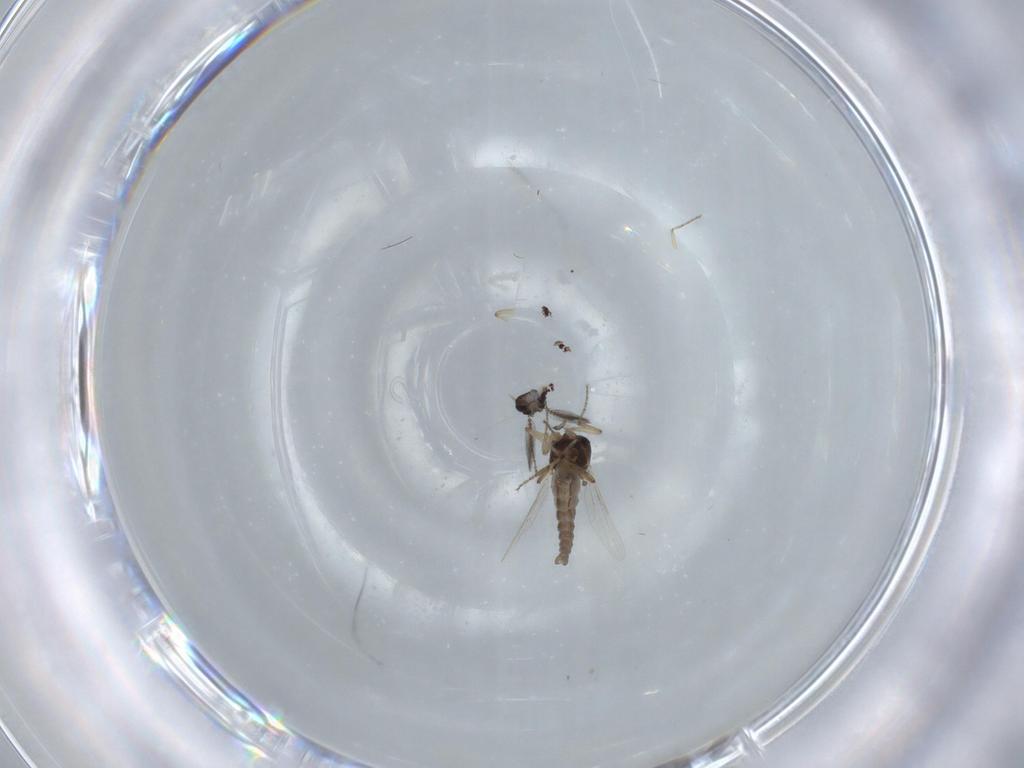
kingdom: Animalia
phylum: Arthropoda
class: Insecta
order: Diptera
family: Ceratopogonidae
